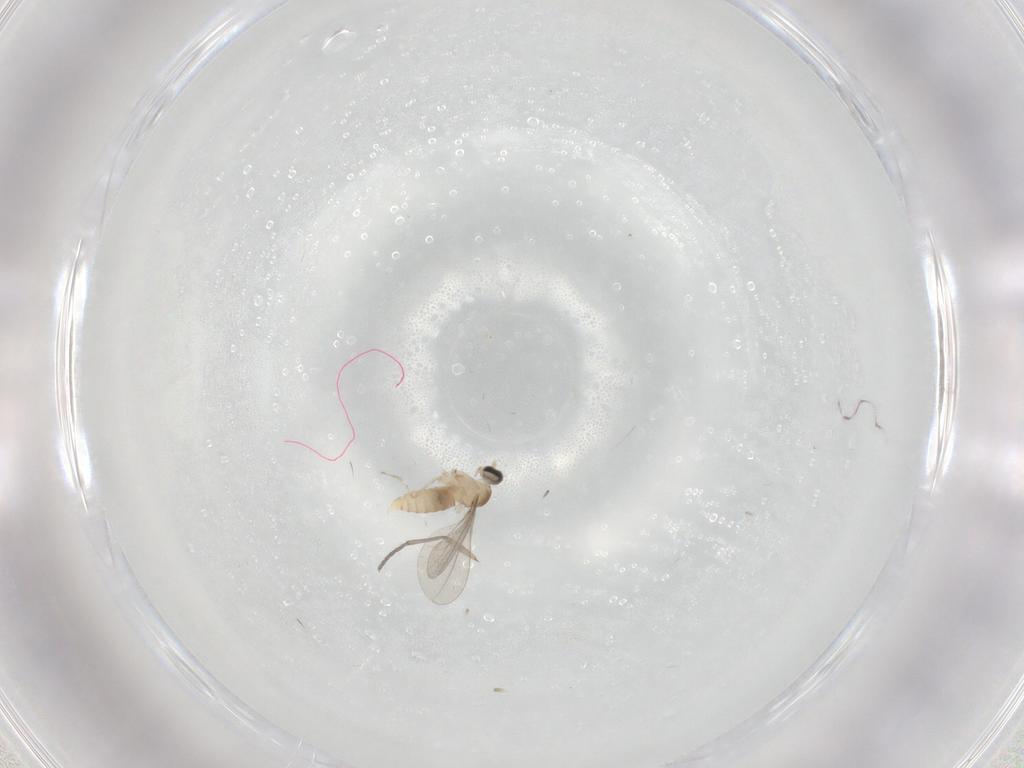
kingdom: Animalia
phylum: Arthropoda
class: Insecta
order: Diptera
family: Cecidomyiidae
